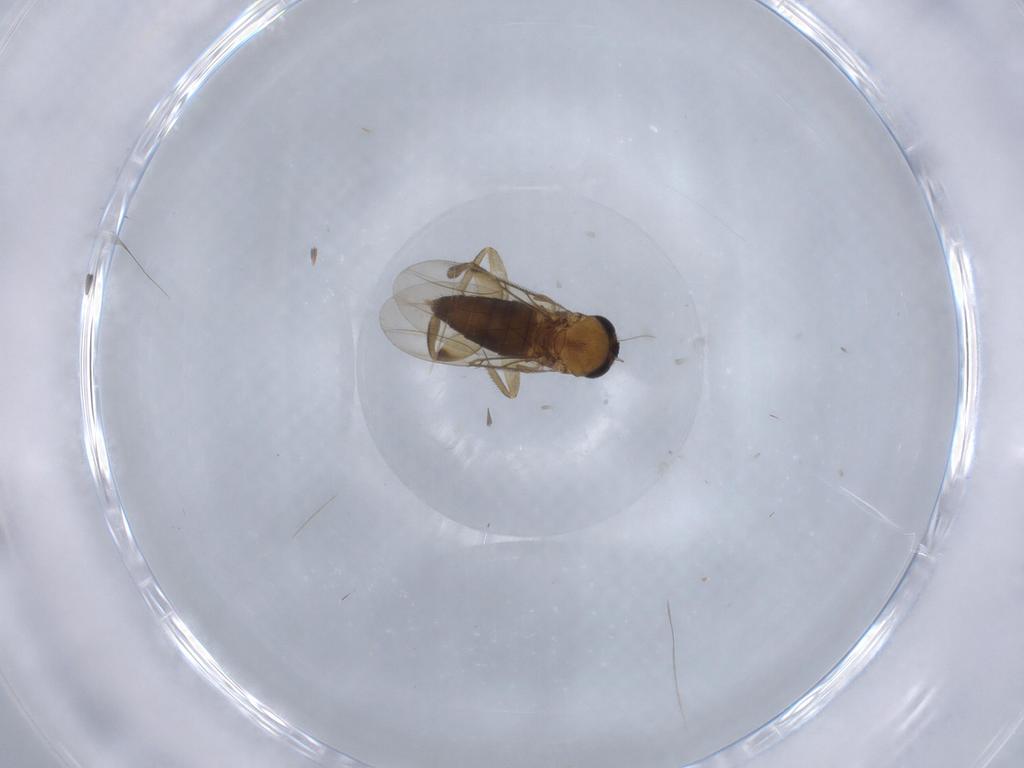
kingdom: Animalia
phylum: Arthropoda
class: Insecta
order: Diptera
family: Phoridae
